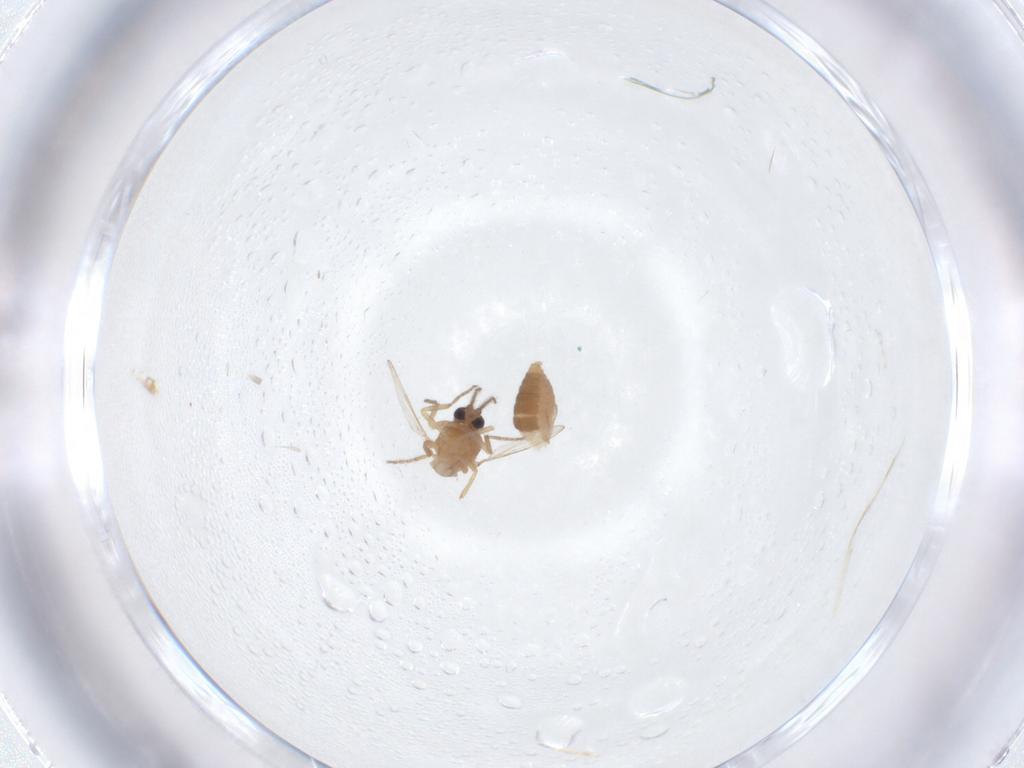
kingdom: Animalia
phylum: Arthropoda
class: Insecta
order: Diptera
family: Ceratopogonidae
